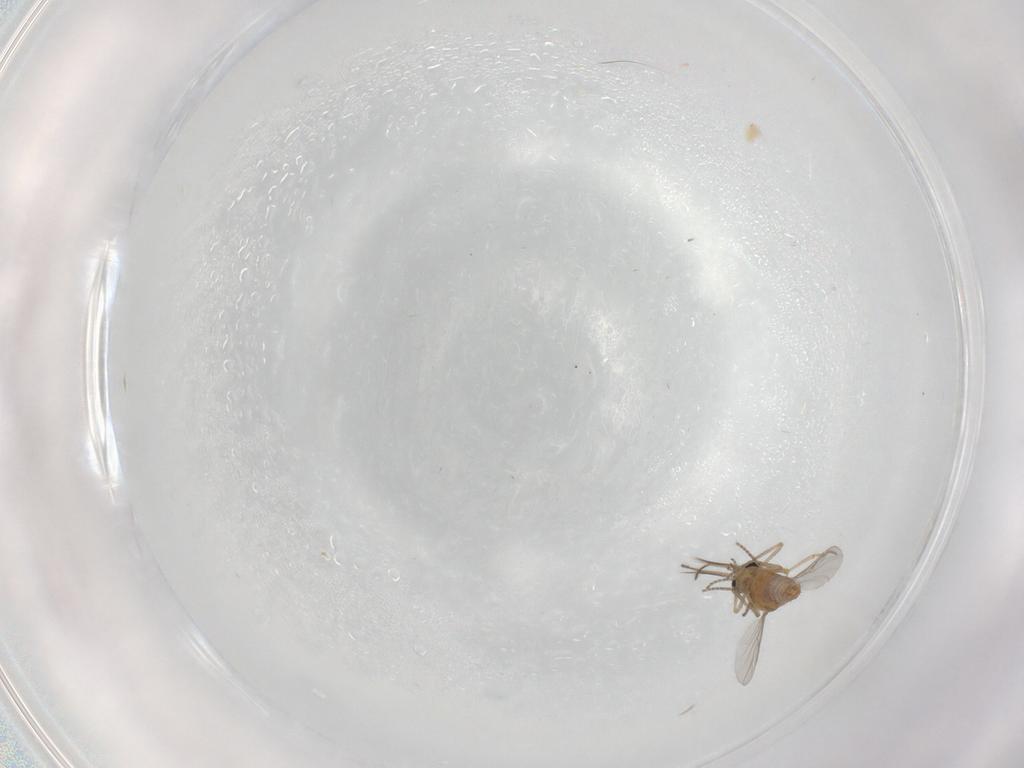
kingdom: Animalia
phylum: Arthropoda
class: Insecta
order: Diptera
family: Ceratopogonidae
